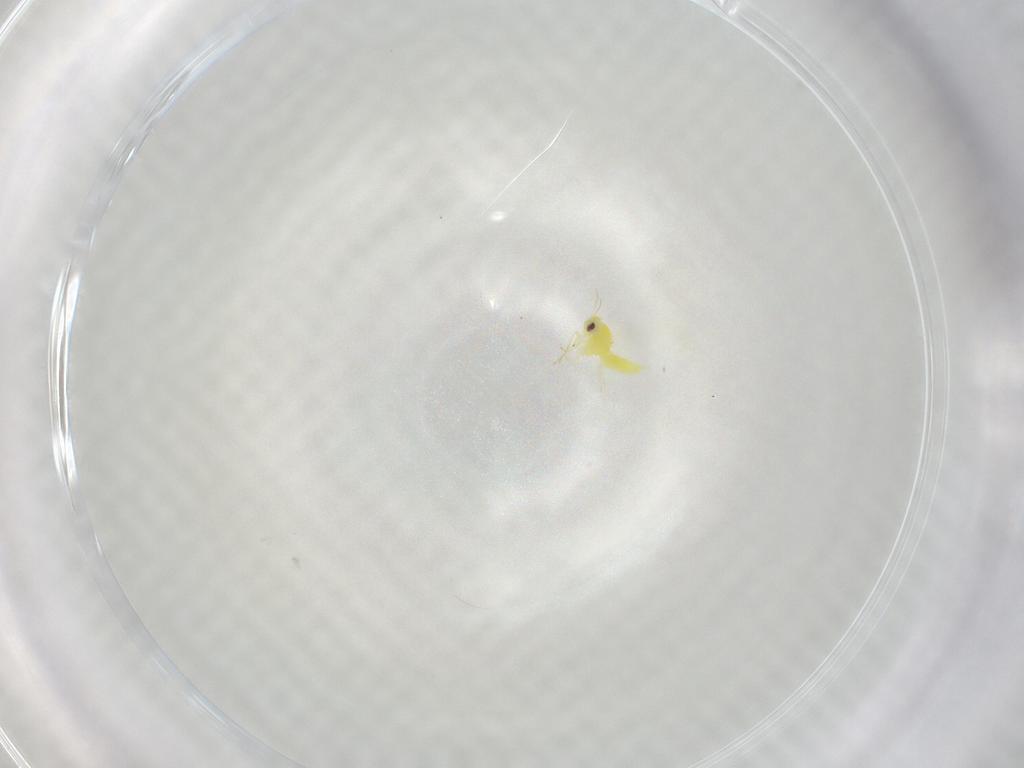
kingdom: Animalia
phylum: Arthropoda
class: Insecta
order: Hemiptera
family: Aleyrodidae
